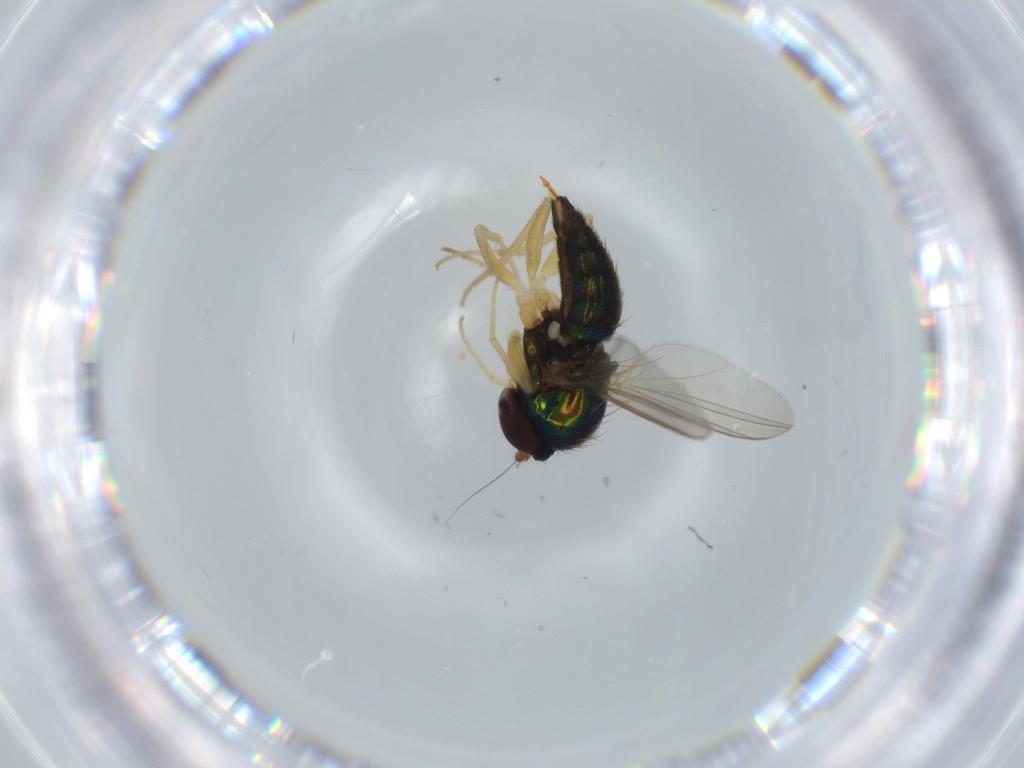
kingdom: Animalia
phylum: Arthropoda
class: Insecta
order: Diptera
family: Dolichopodidae
